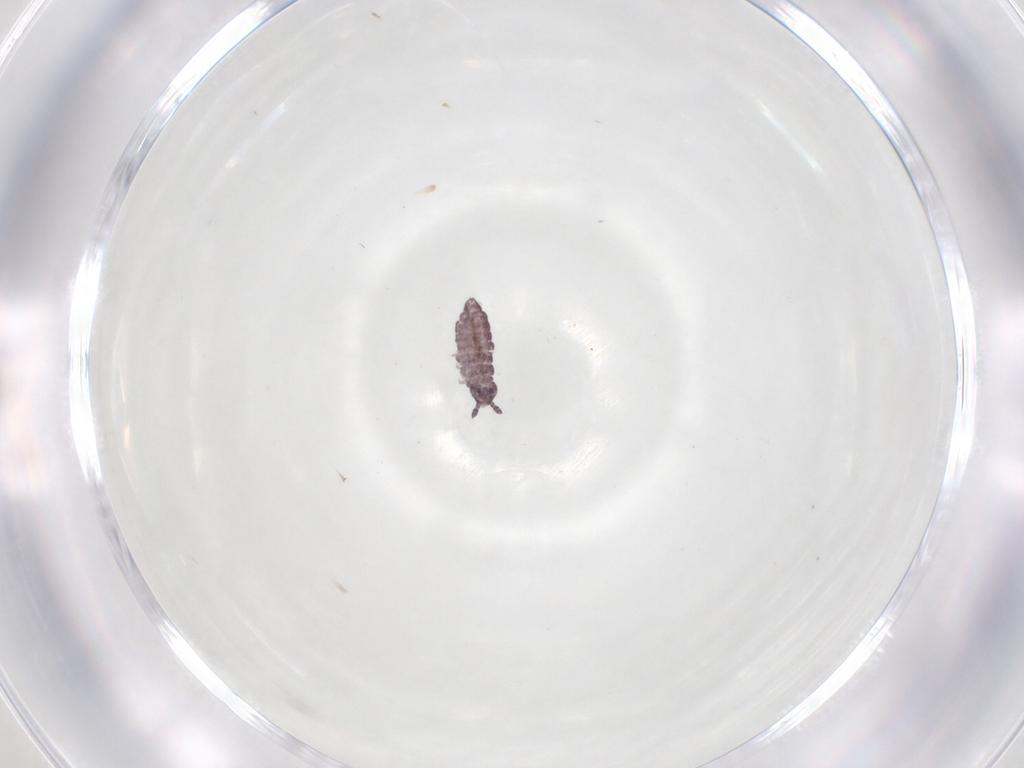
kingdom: Animalia
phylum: Arthropoda
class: Collembola
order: Poduromorpha
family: Hypogastruridae
